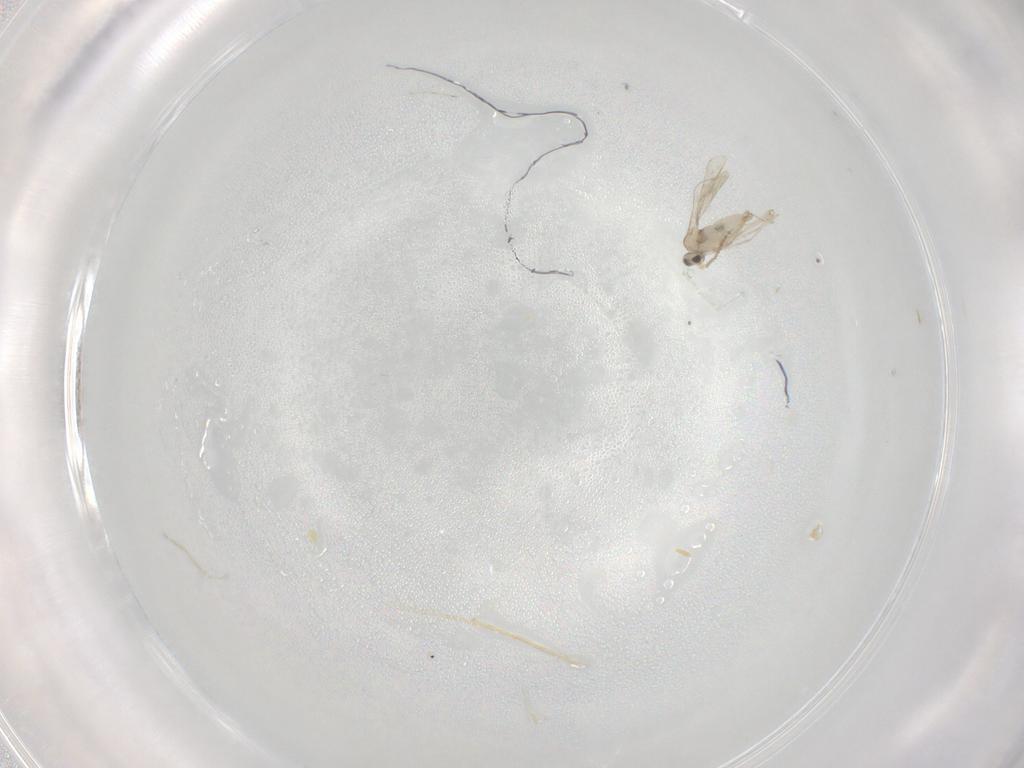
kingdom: Animalia
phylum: Arthropoda
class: Insecta
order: Diptera
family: Cecidomyiidae
